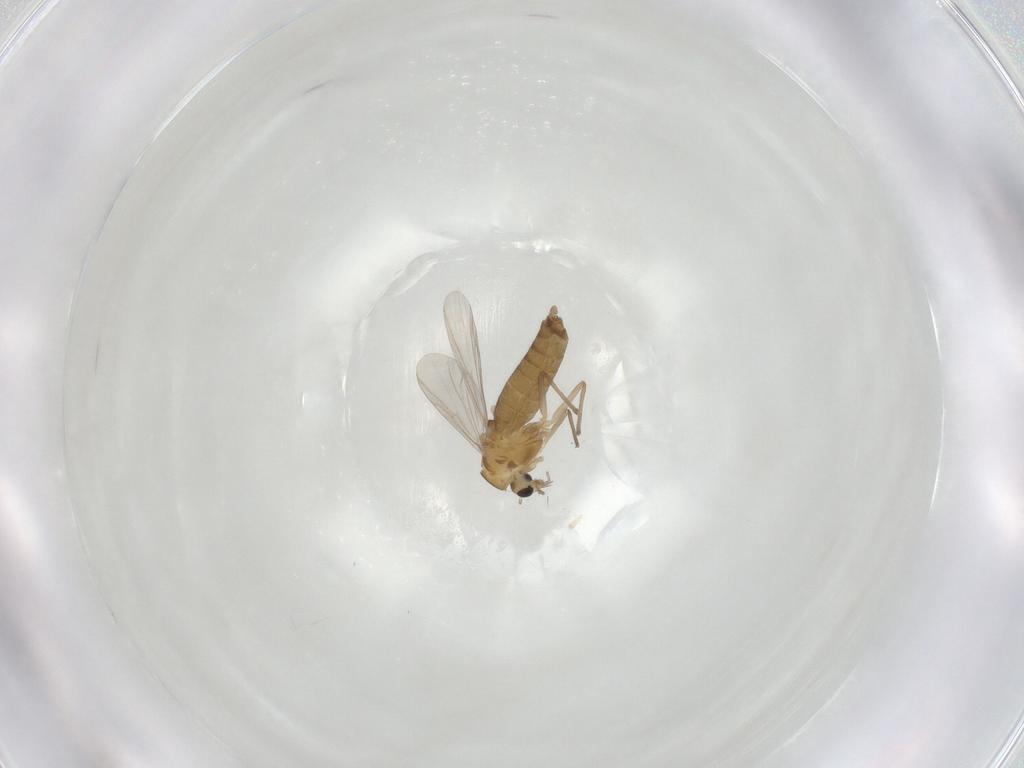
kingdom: Animalia
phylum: Arthropoda
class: Insecta
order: Diptera
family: Chironomidae
